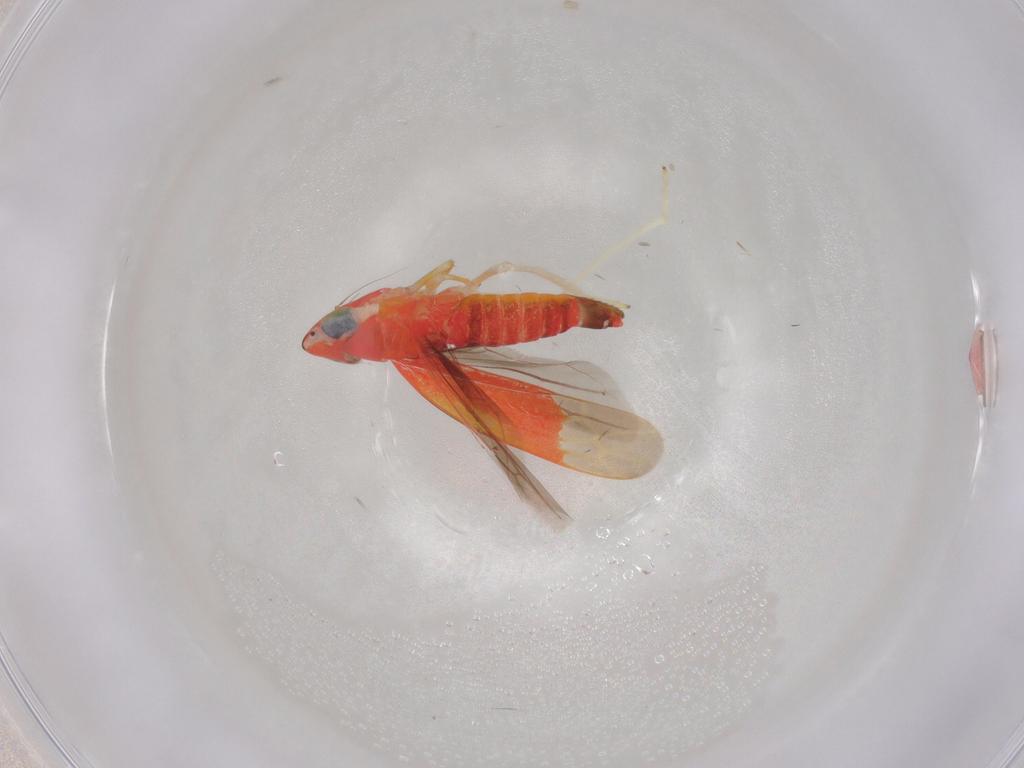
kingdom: Animalia
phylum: Arthropoda
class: Insecta
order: Hemiptera
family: Cicadellidae
